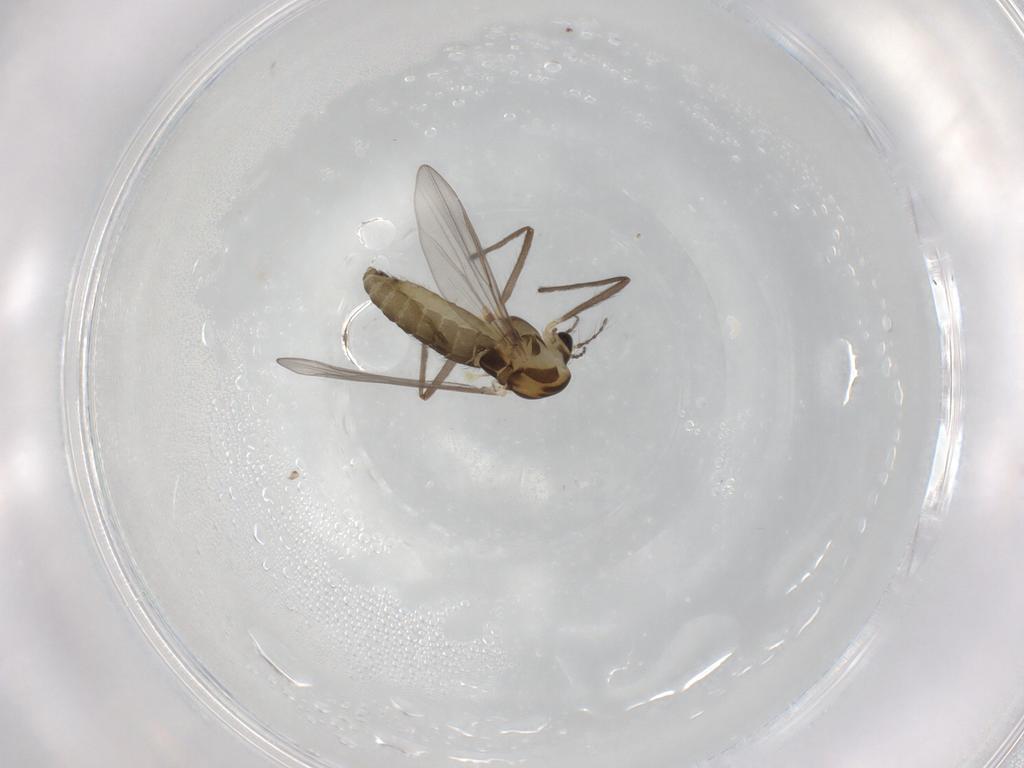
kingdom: Animalia
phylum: Arthropoda
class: Insecta
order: Diptera
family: Chironomidae
